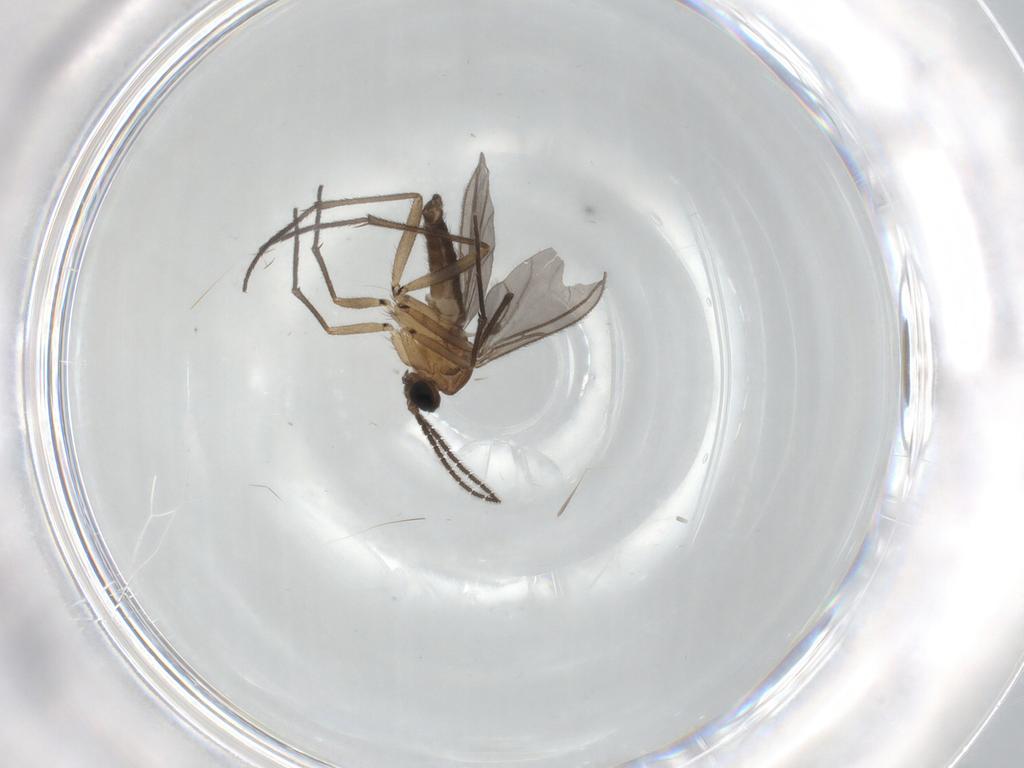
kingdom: Animalia
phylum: Arthropoda
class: Insecta
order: Diptera
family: Sciaridae
